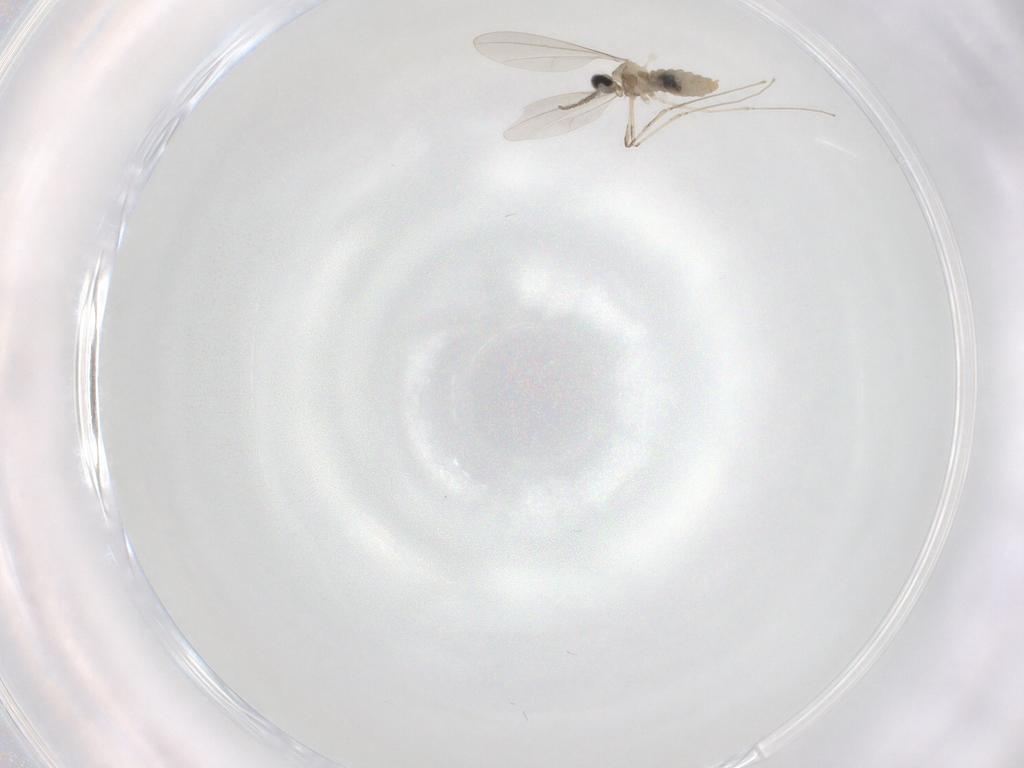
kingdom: Animalia
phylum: Arthropoda
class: Insecta
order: Diptera
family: Cecidomyiidae
